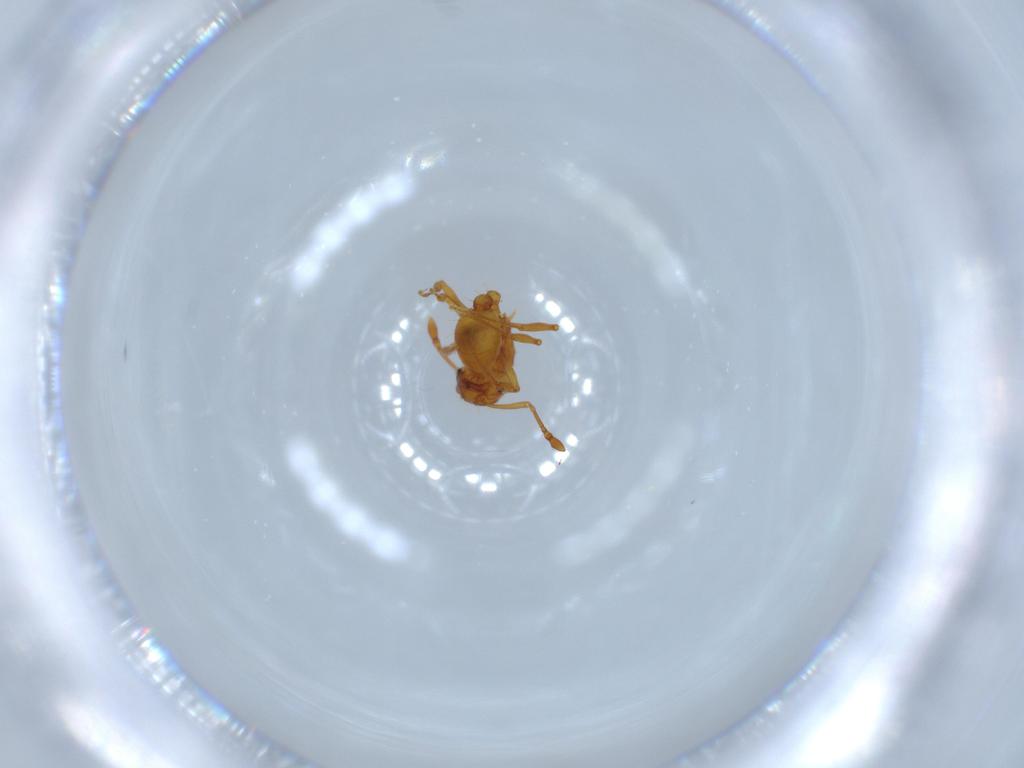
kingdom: Animalia
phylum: Arthropoda
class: Insecta
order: Hymenoptera
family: Formicidae
